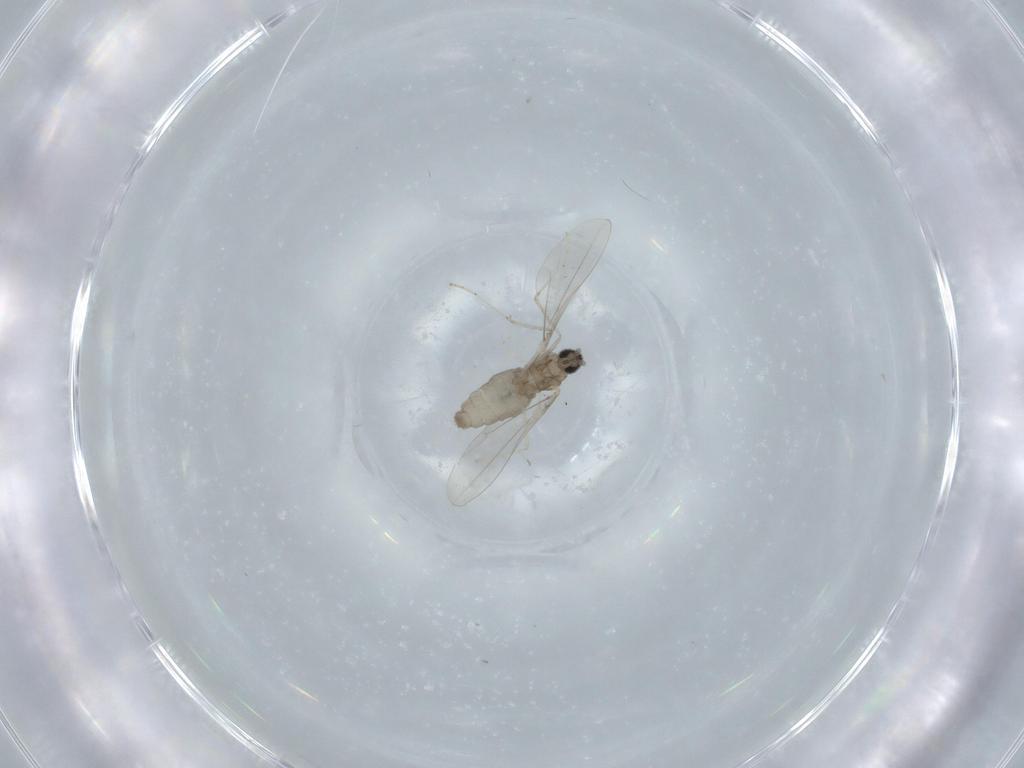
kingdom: Animalia
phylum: Arthropoda
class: Insecta
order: Diptera
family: Cecidomyiidae
